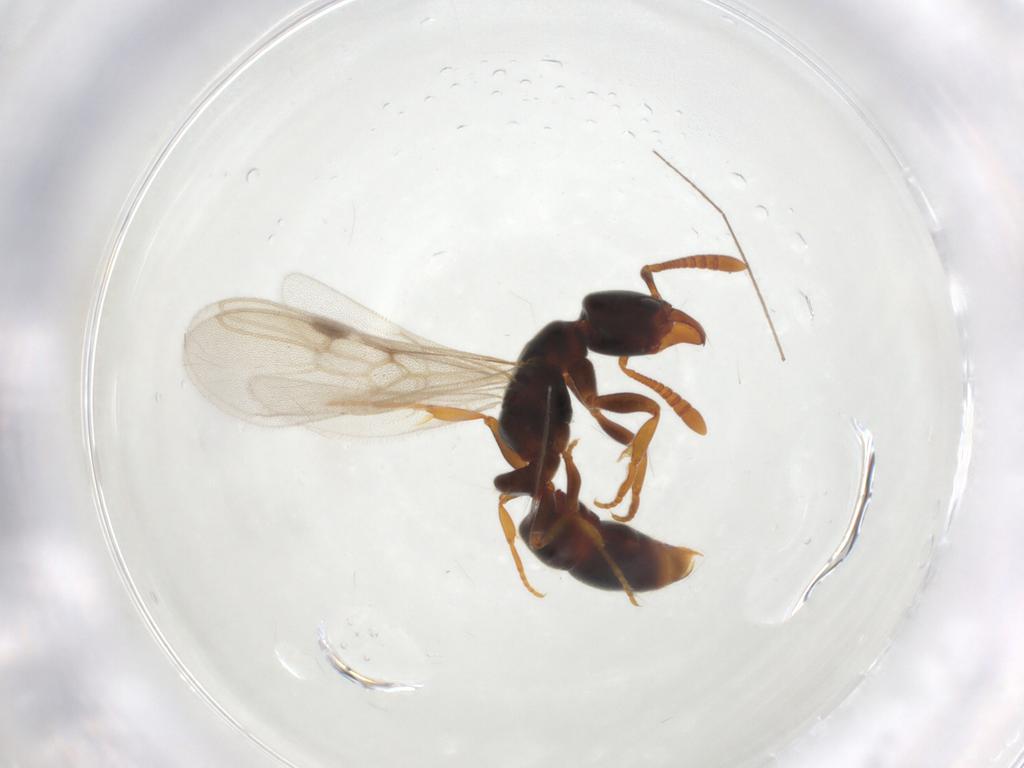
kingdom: Animalia
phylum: Arthropoda
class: Insecta
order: Hymenoptera
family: Formicidae
